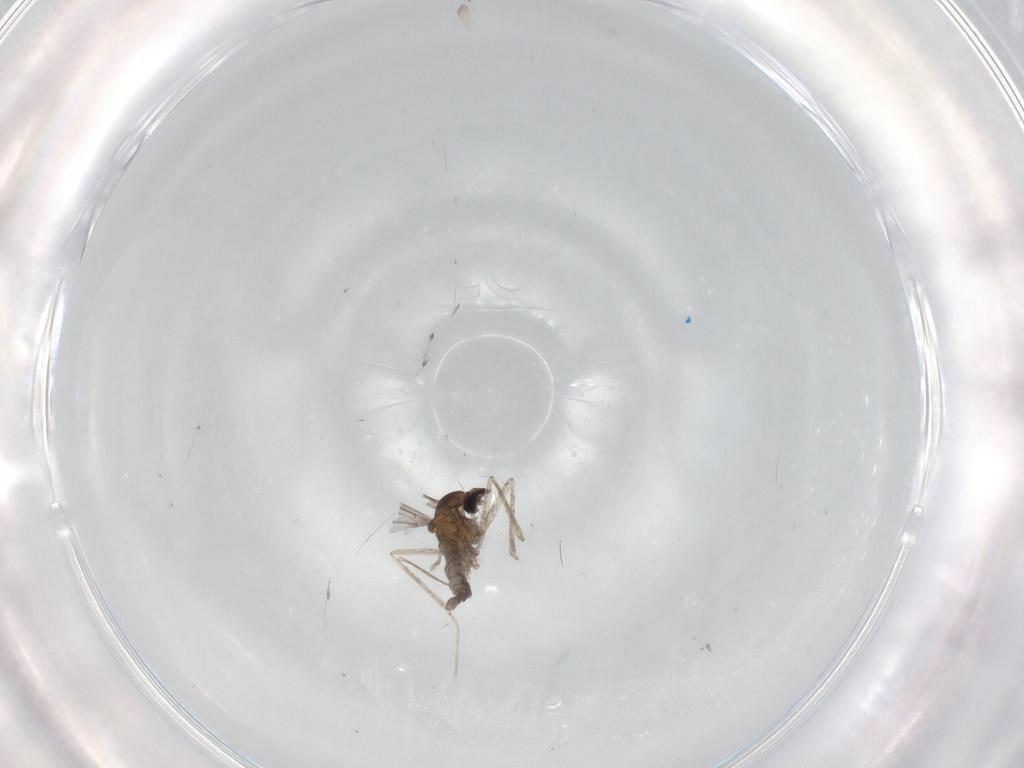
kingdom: Animalia
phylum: Arthropoda
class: Insecta
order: Diptera
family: Cecidomyiidae
